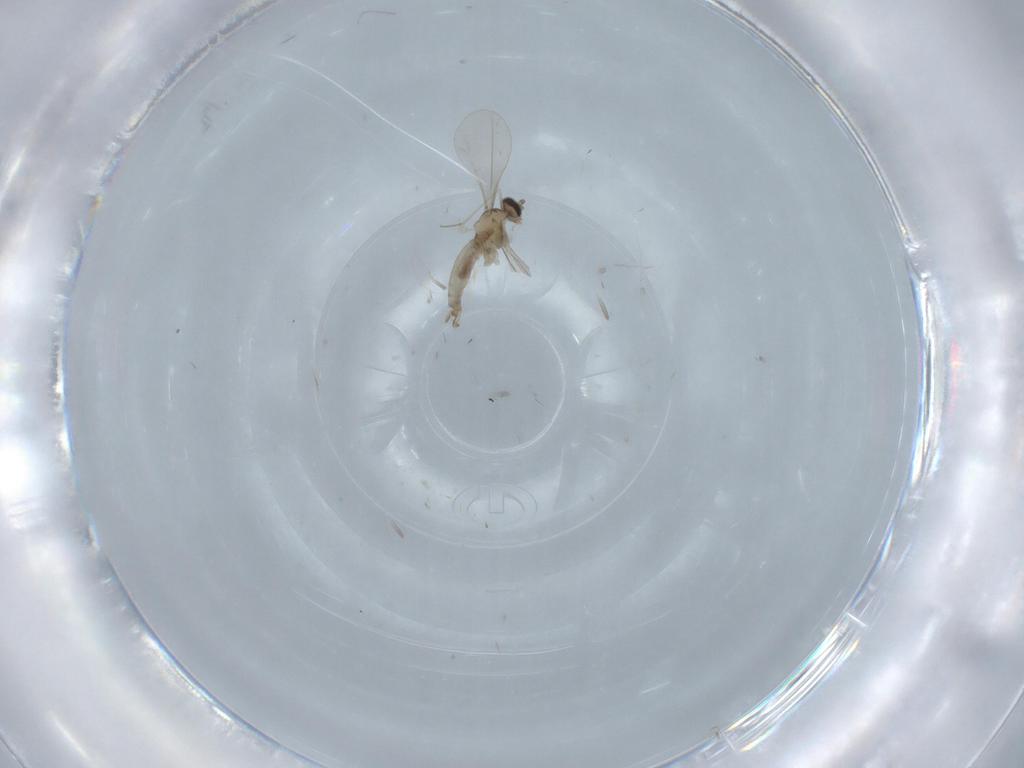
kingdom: Animalia
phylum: Arthropoda
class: Insecta
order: Diptera
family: Cecidomyiidae
